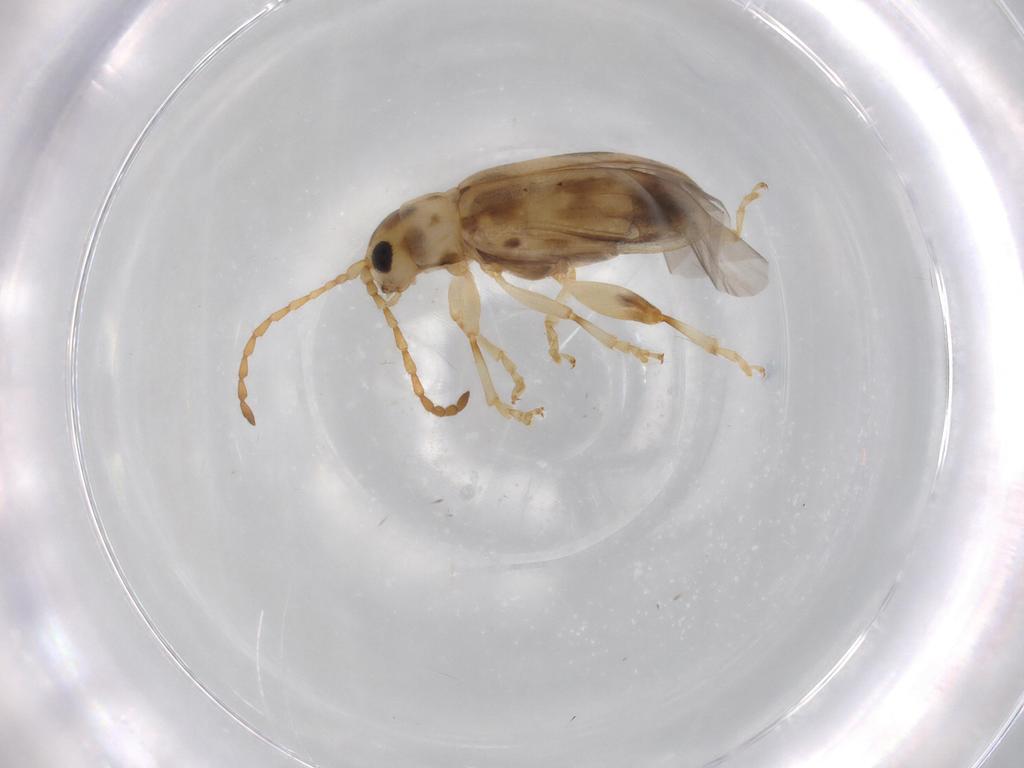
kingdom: Animalia
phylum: Arthropoda
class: Insecta
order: Coleoptera
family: Chrysomelidae
